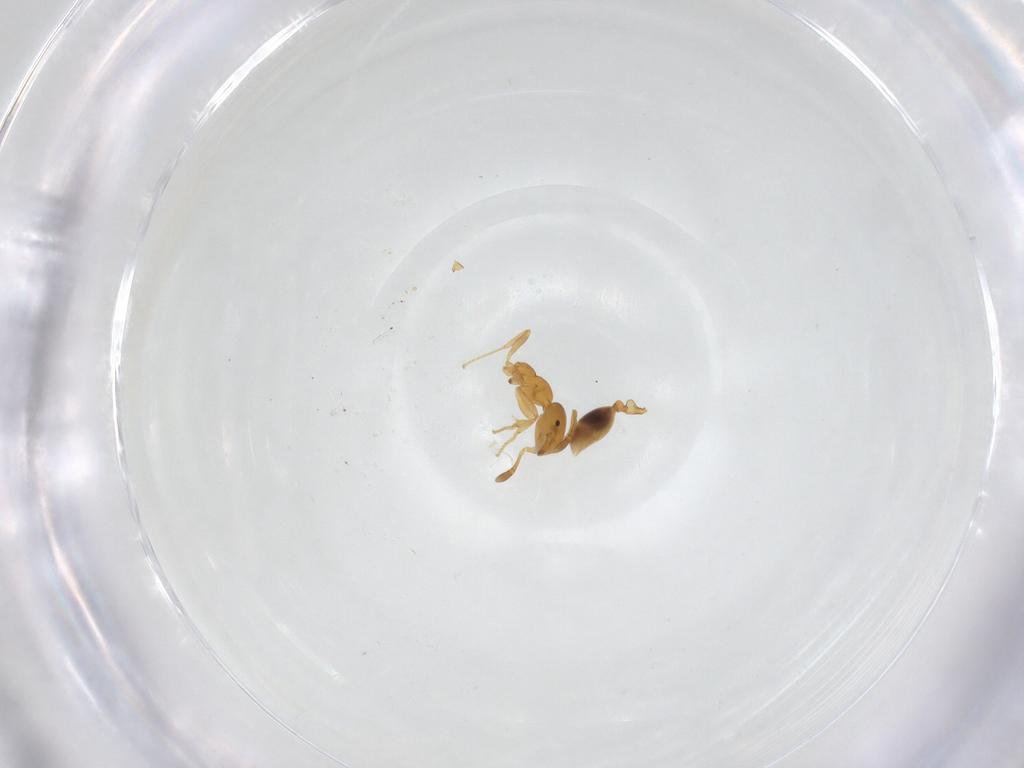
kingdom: Animalia
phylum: Arthropoda
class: Insecta
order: Hymenoptera
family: Formicidae
